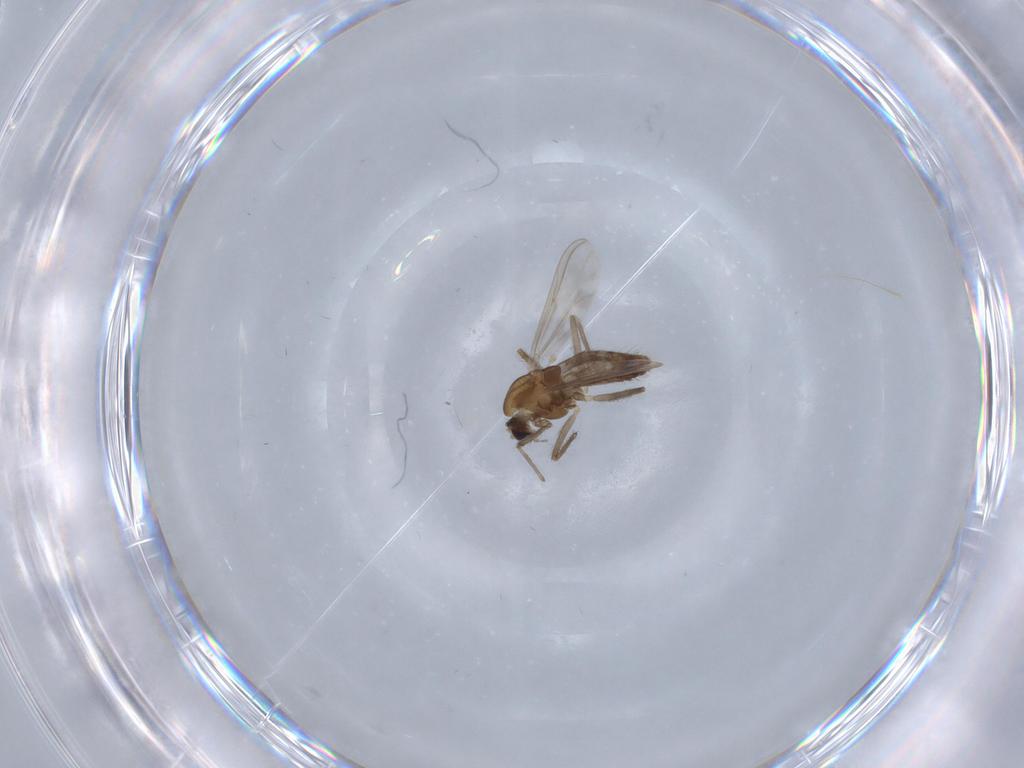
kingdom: Animalia
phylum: Arthropoda
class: Insecta
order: Diptera
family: Chironomidae
